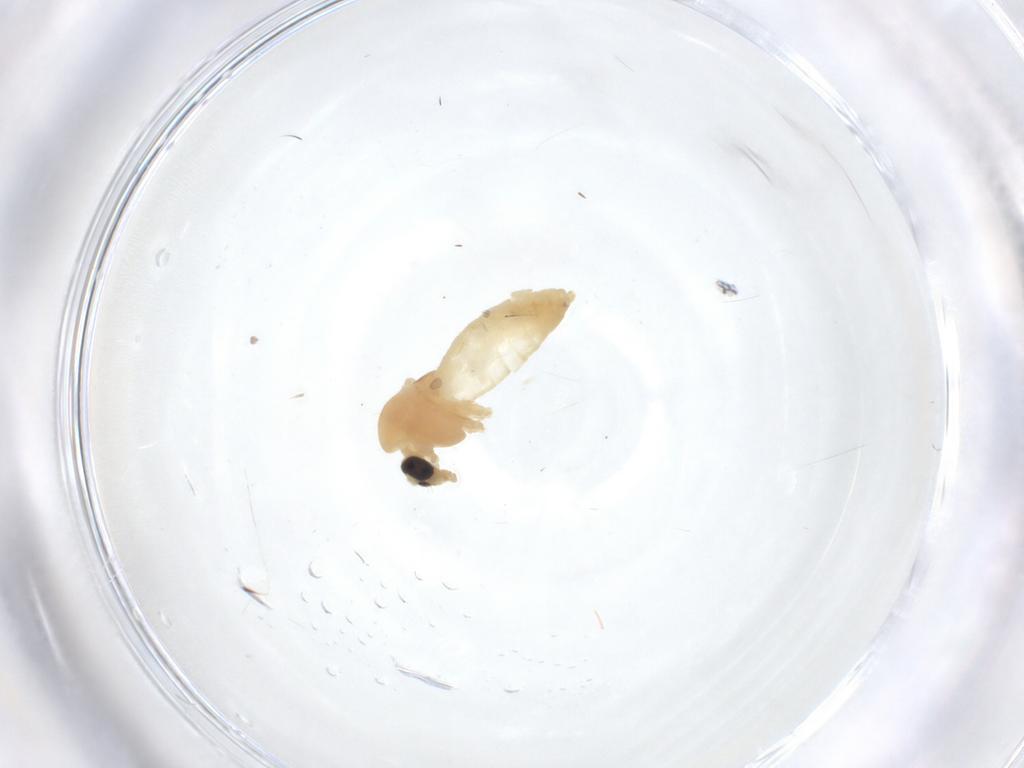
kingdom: Animalia
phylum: Arthropoda
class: Insecta
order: Diptera
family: Chironomidae
